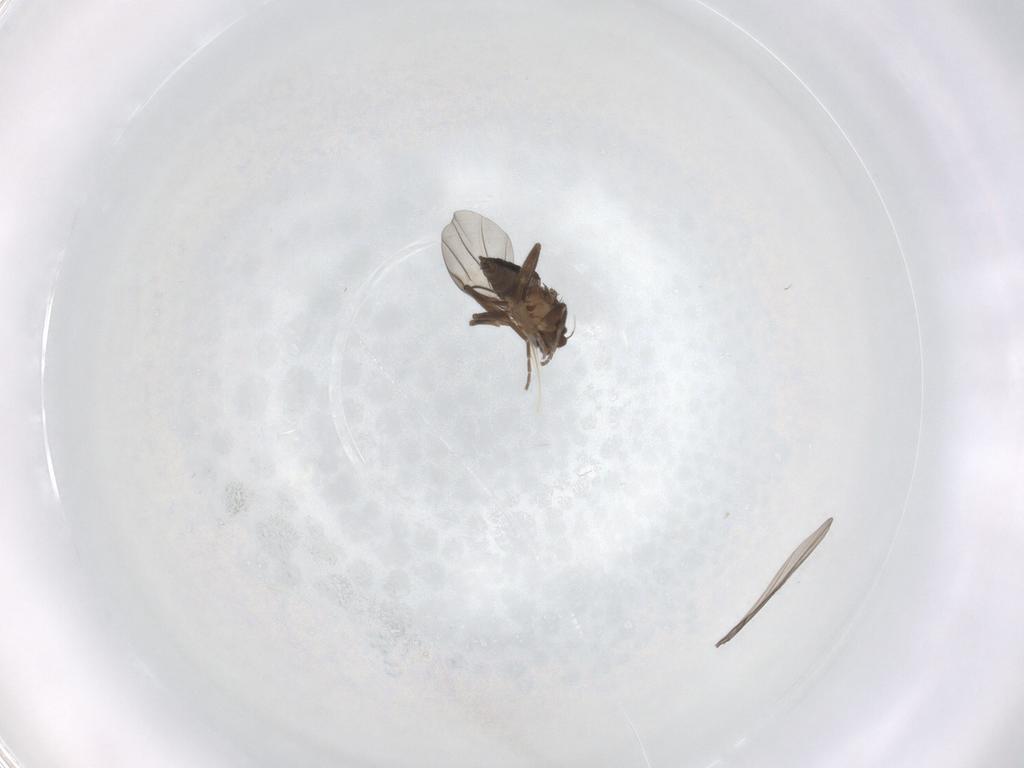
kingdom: Animalia
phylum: Arthropoda
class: Insecta
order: Diptera
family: Phoridae
